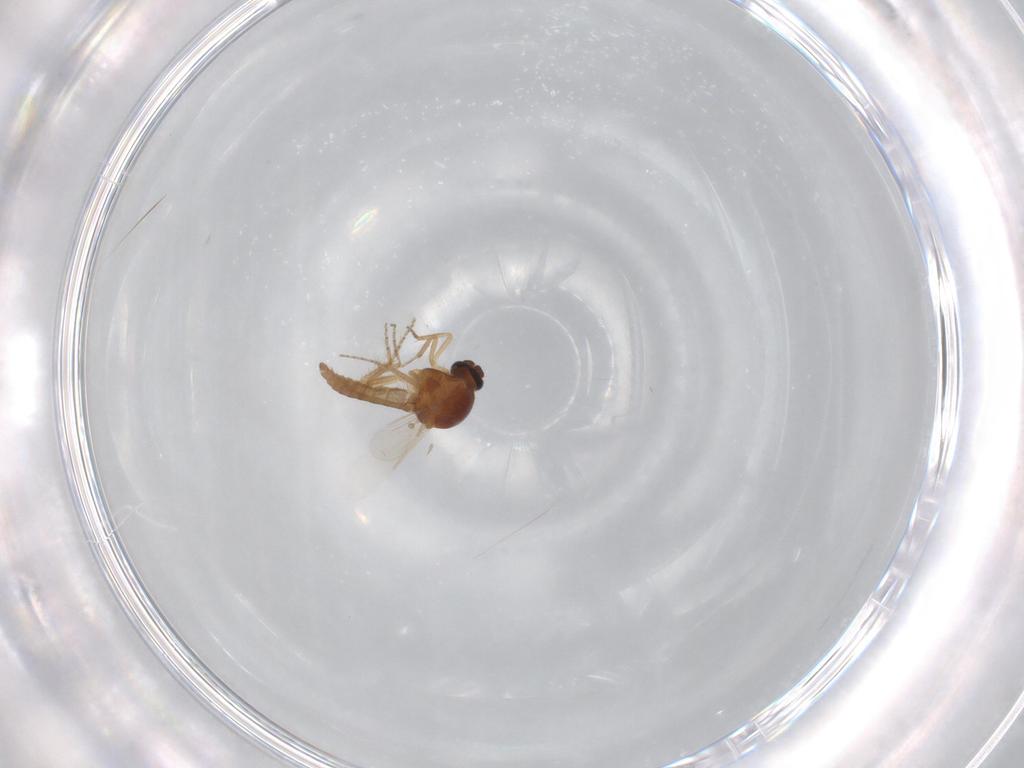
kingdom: Animalia
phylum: Arthropoda
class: Insecta
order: Diptera
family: Ceratopogonidae
